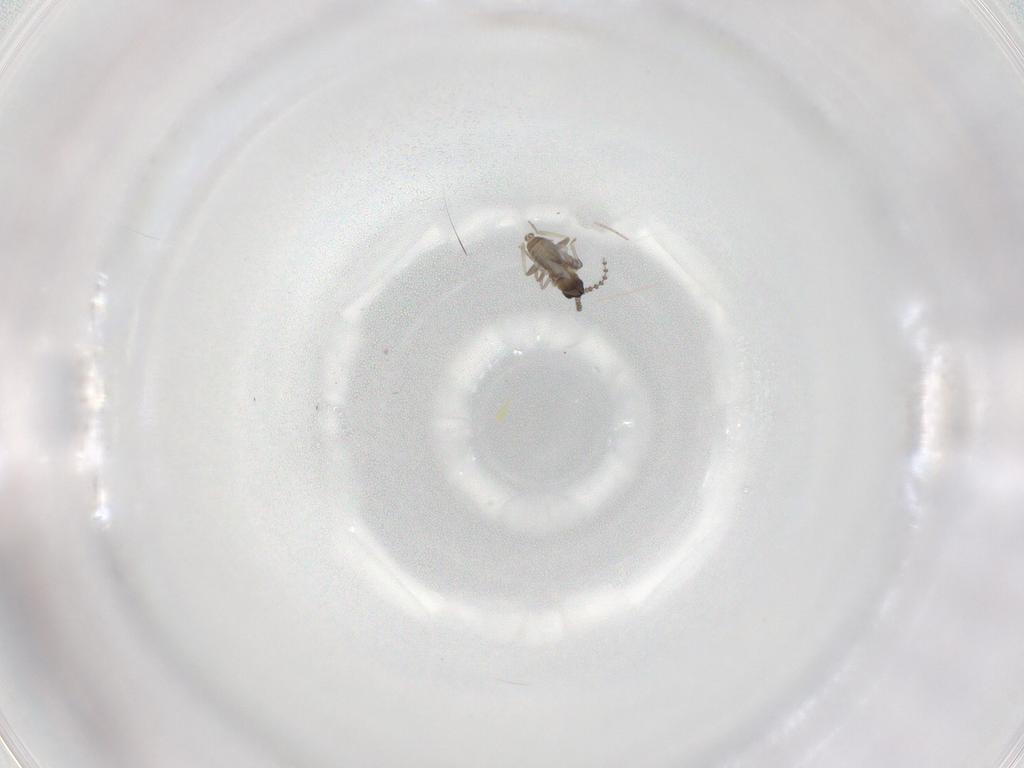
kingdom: Animalia
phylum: Arthropoda
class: Insecta
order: Diptera
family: Cecidomyiidae
